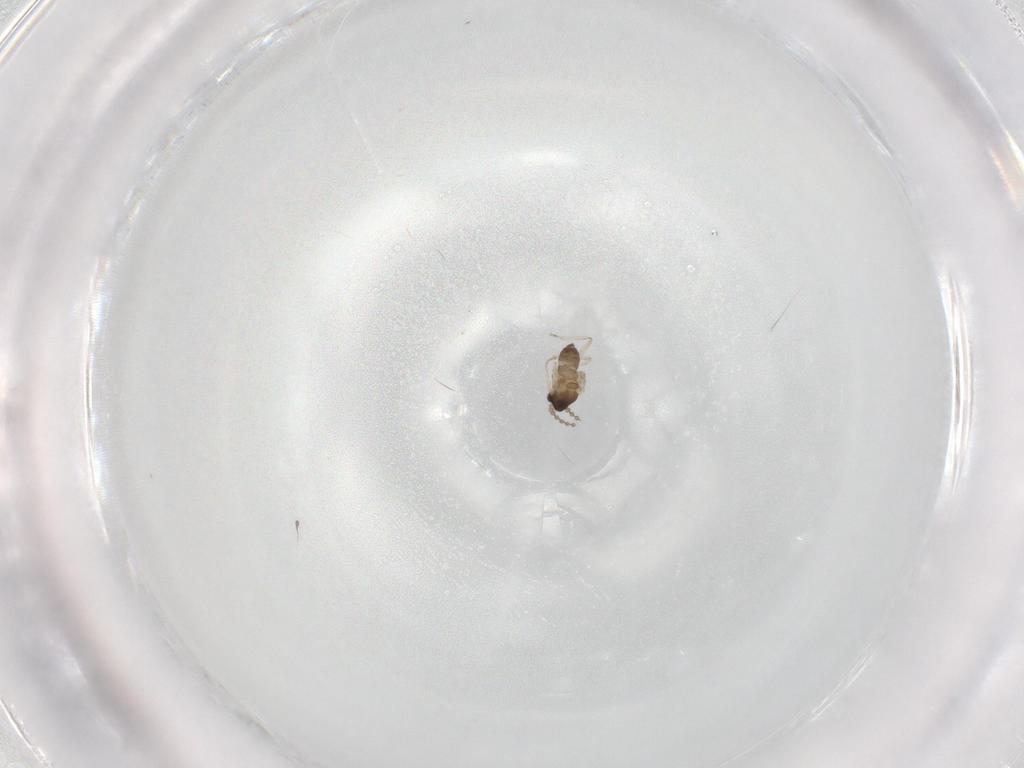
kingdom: Animalia
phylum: Arthropoda
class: Insecta
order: Diptera
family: Cecidomyiidae
